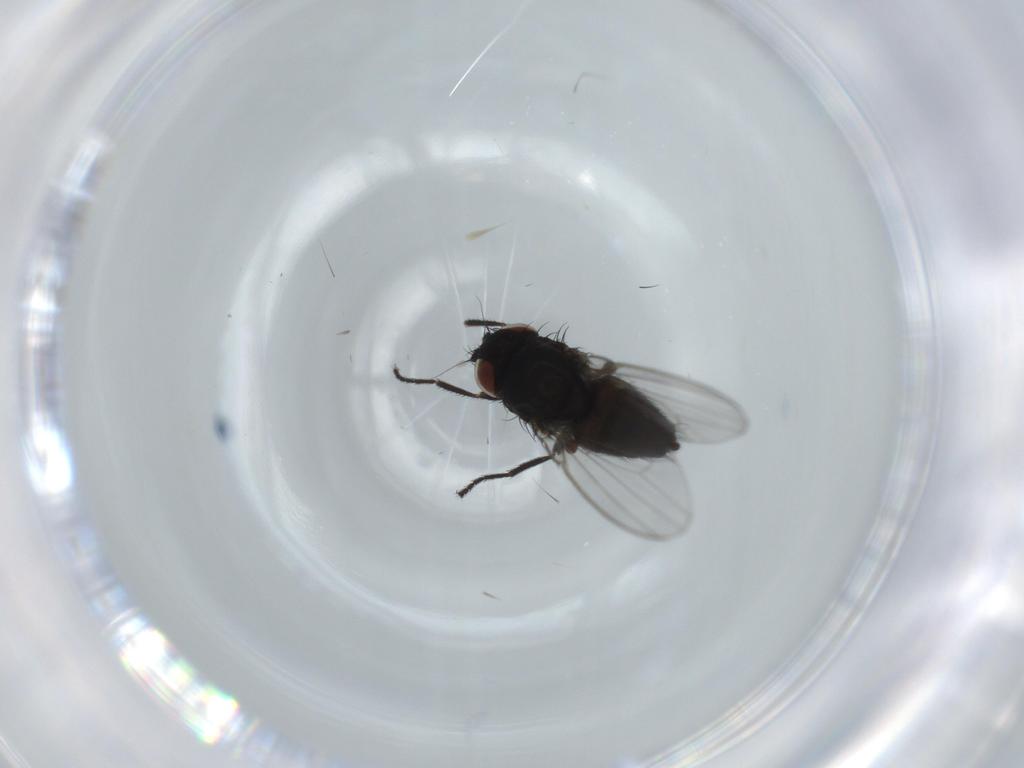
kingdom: Animalia
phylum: Arthropoda
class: Insecta
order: Diptera
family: Milichiidae
